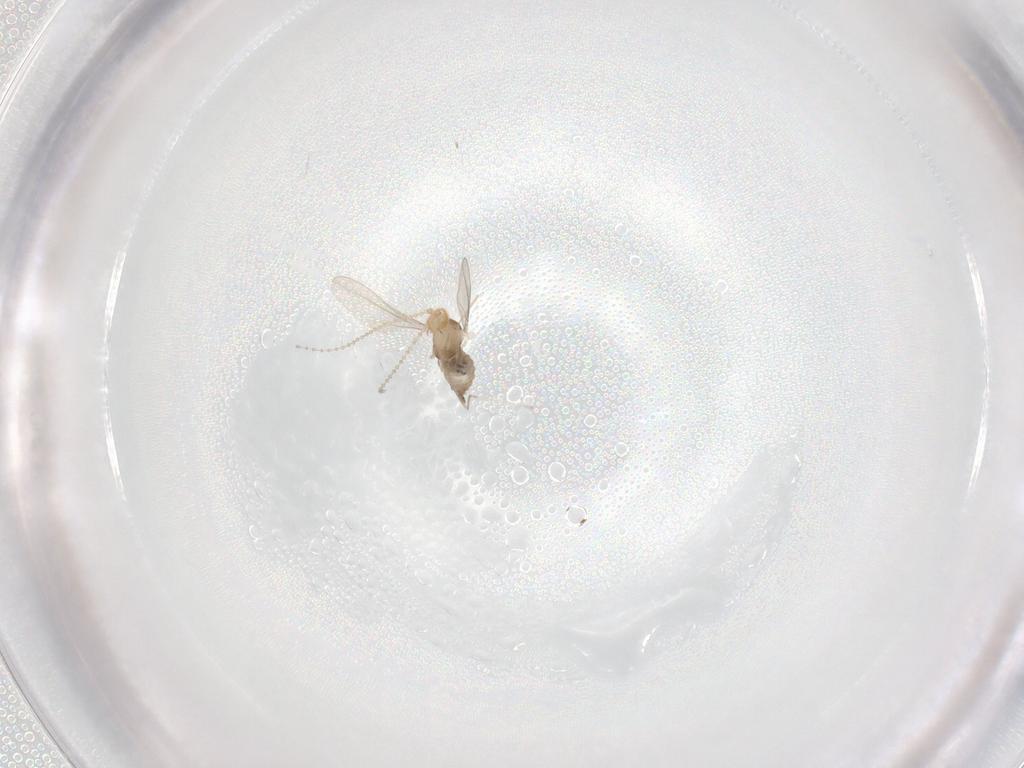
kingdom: Animalia
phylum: Arthropoda
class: Insecta
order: Diptera
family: Cecidomyiidae
